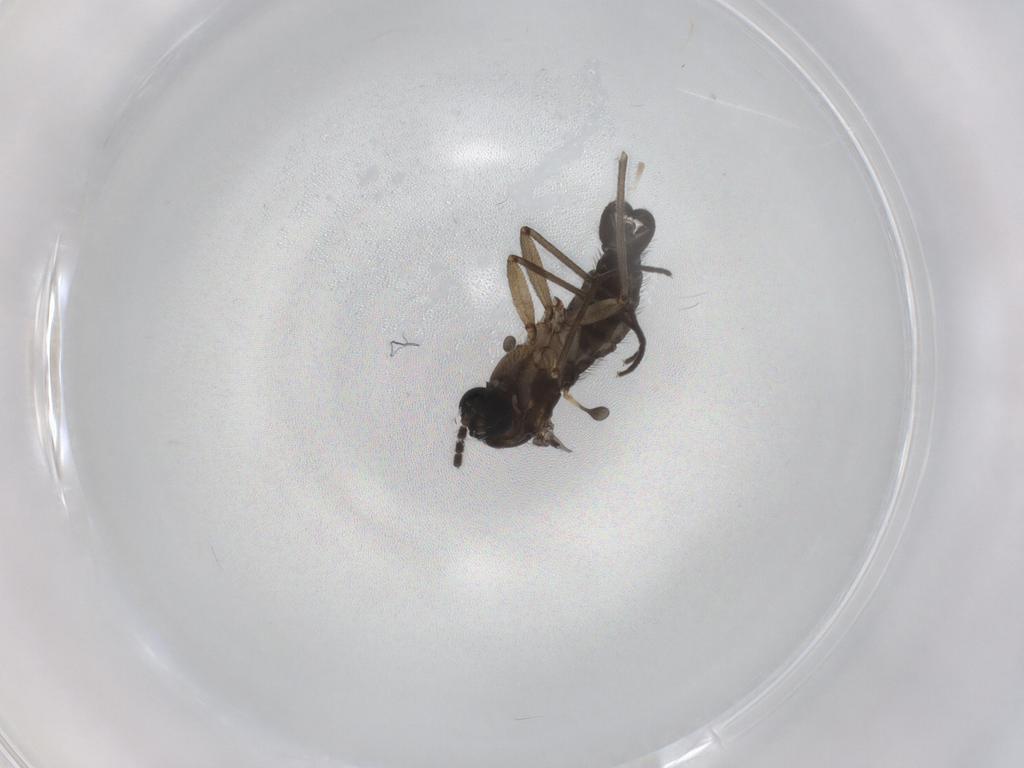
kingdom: Animalia
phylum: Arthropoda
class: Insecta
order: Diptera
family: Sciaridae
